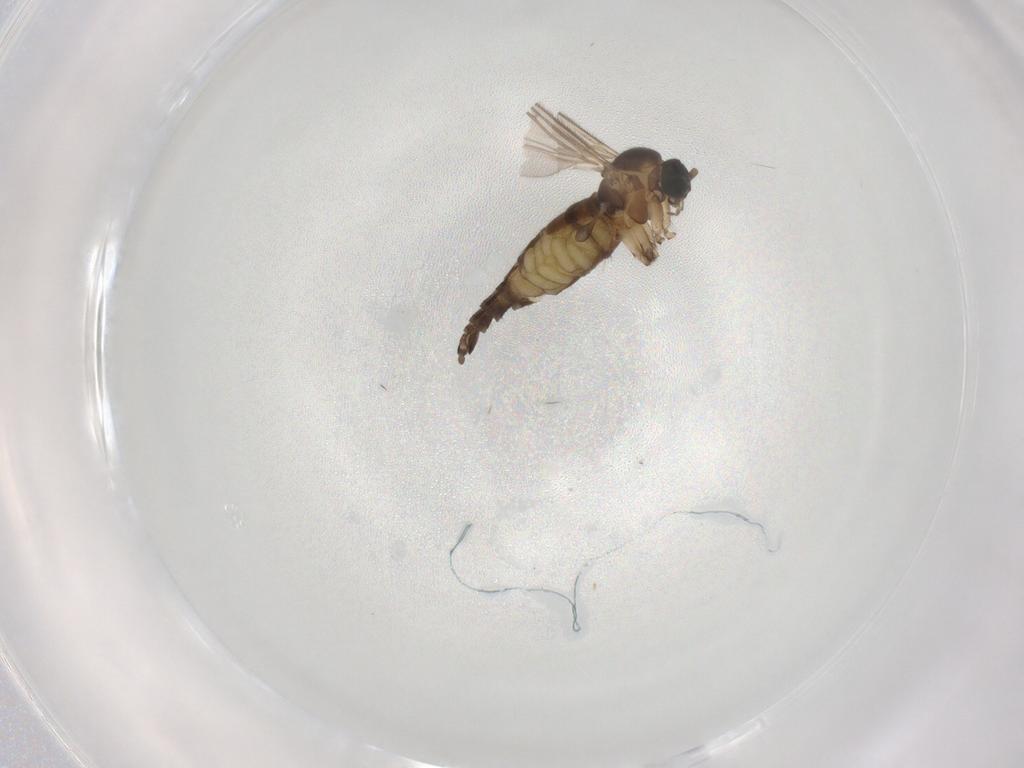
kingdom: Animalia
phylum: Arthropoda
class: Insecta
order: Diptera
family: Sciaridae
